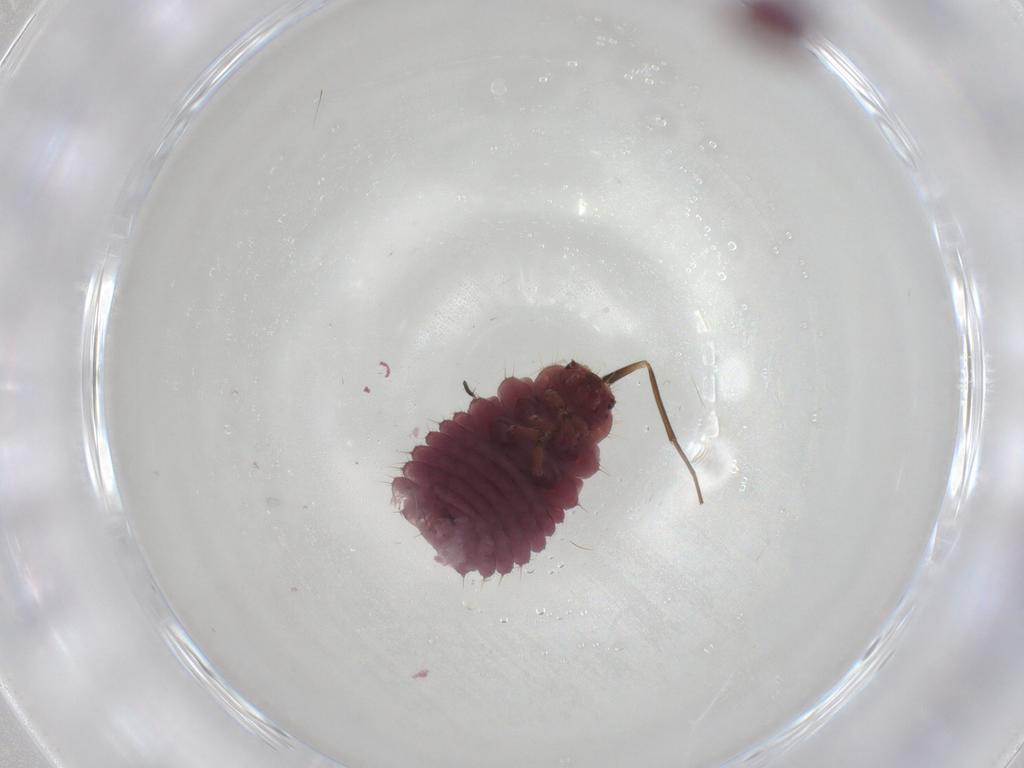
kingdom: Animalia
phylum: Arthropoda
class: Insecta
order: Coleoptera
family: Coccinellidae
